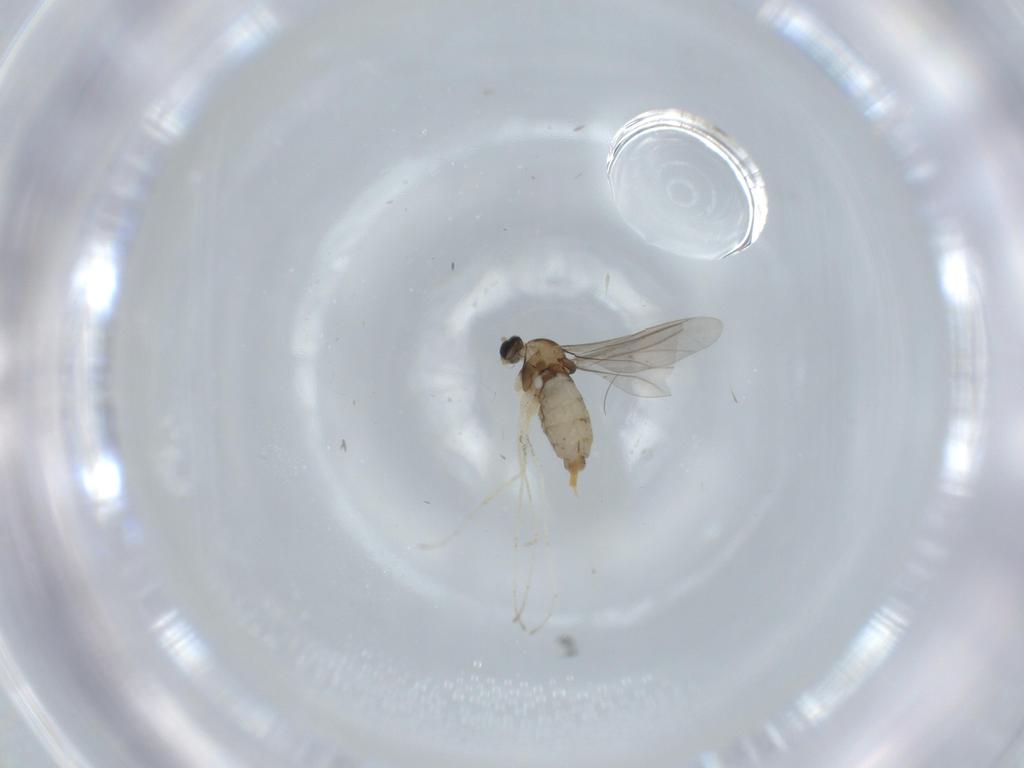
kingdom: Animalia
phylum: Arthropoda
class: Insecta
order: Diptera
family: Cecidomyiidae
